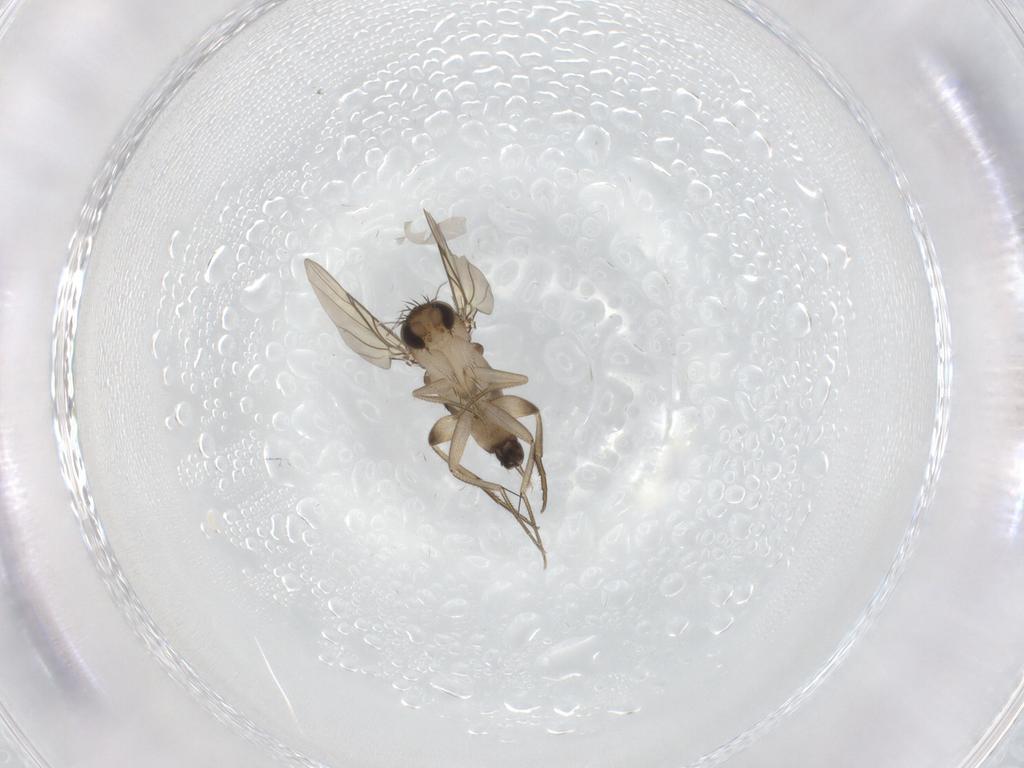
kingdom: Animalia
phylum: Arthropoda
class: Insecta
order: Diptera
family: Phoridae
